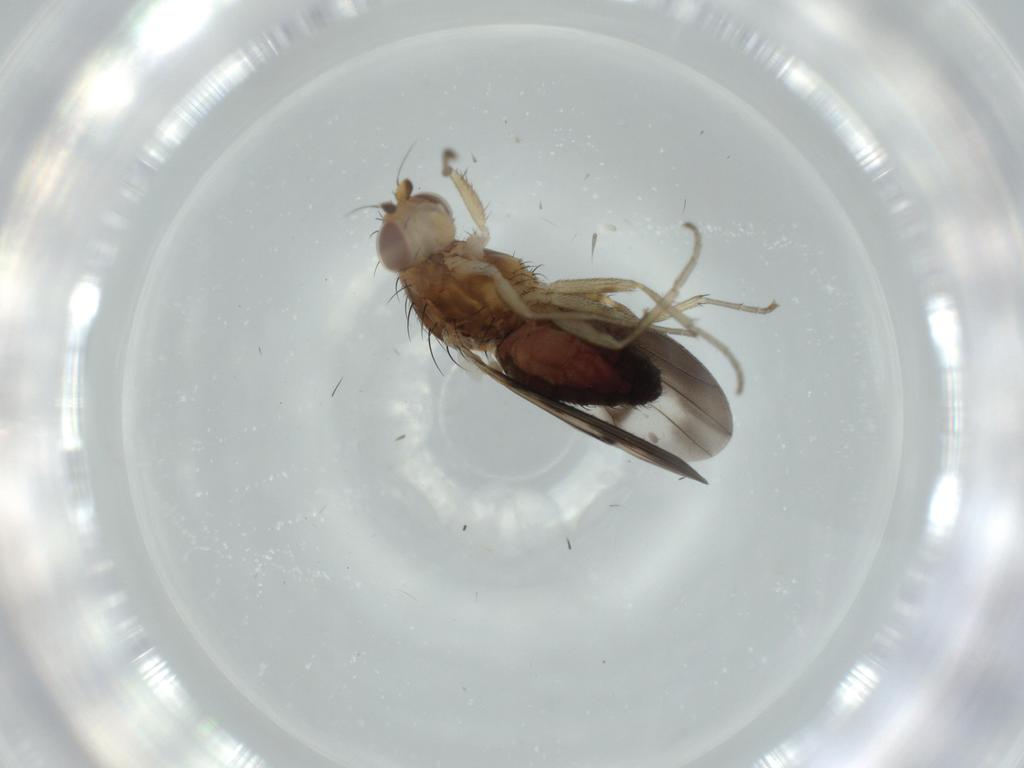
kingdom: Animalia
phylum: Arthropoda
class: Insecta
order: Diptera
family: Heleomyzidae
